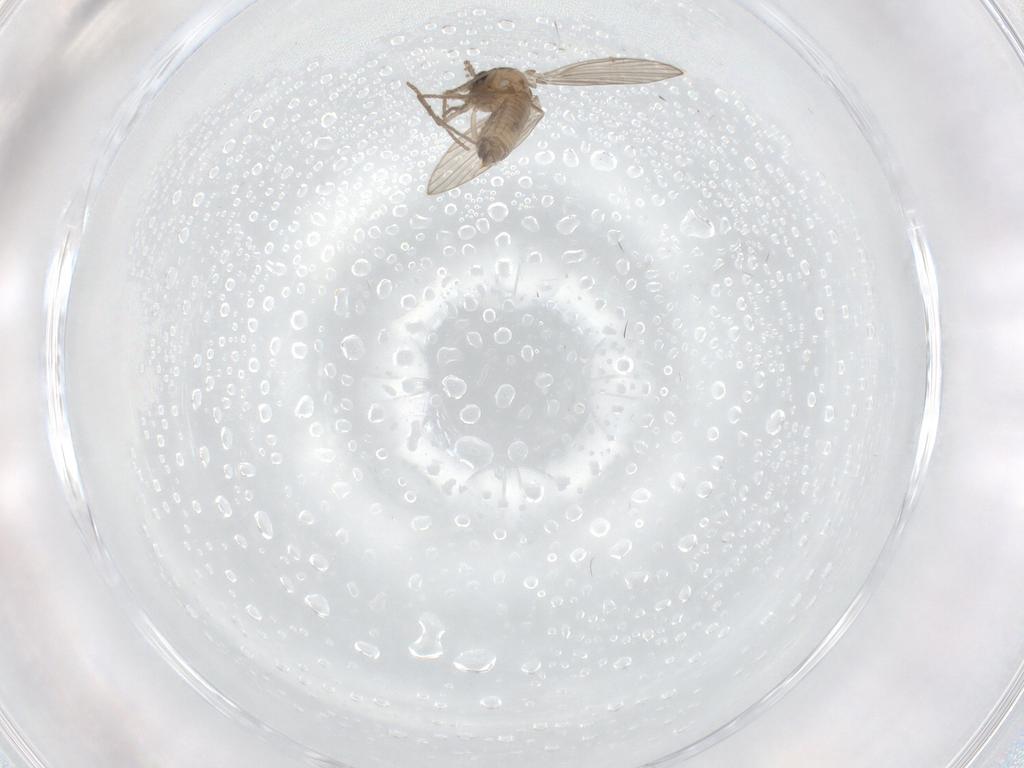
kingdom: Animalia
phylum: Arthropoda
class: Insecta
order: Diptera
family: Psychodidae
